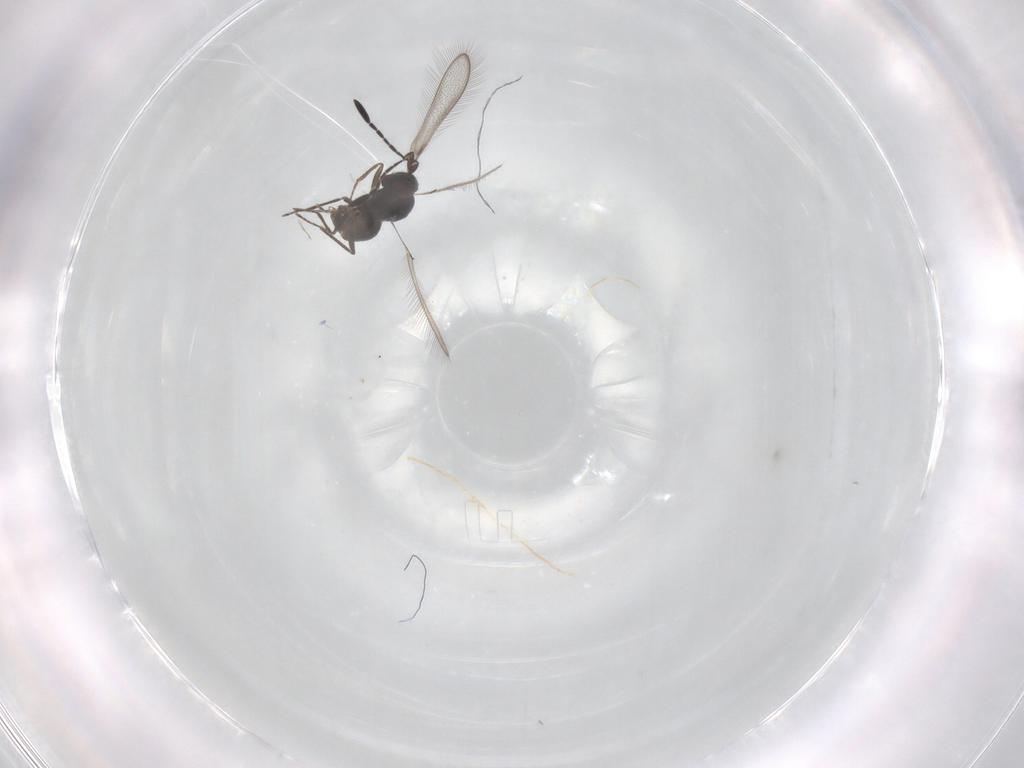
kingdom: Animalia
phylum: Arthropoda
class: Insecta
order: Hymenoptera
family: Mymaridae
